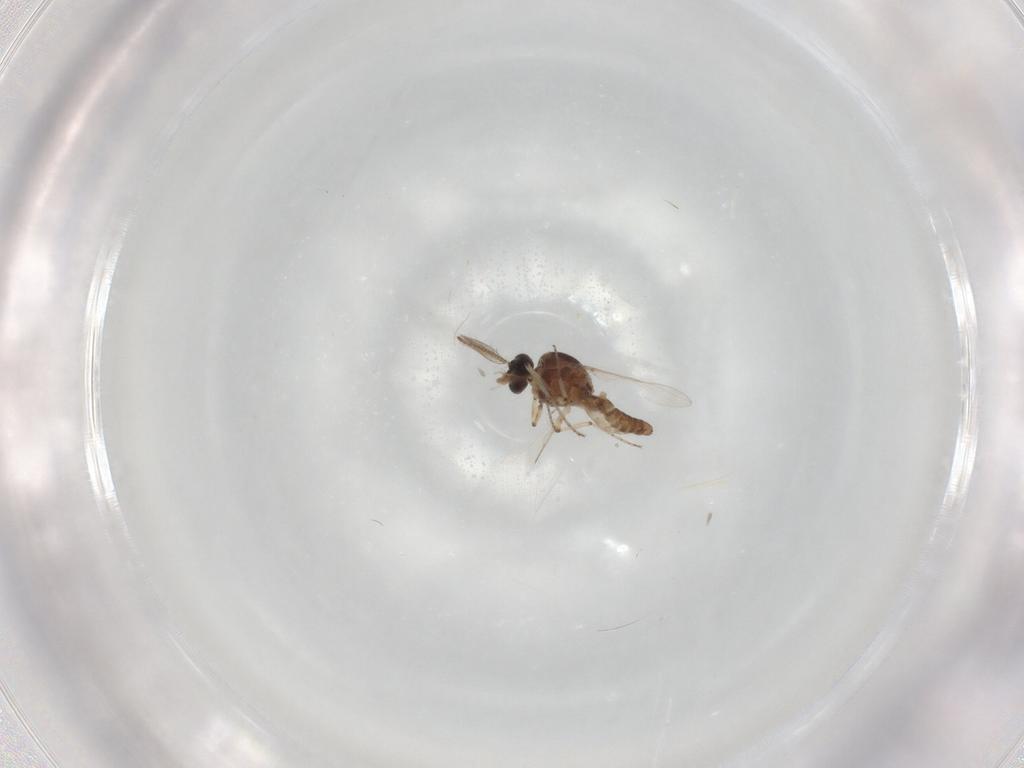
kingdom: Animalia
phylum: Arthropoda
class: Insecta
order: Diptera
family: Ceratopogonidae
